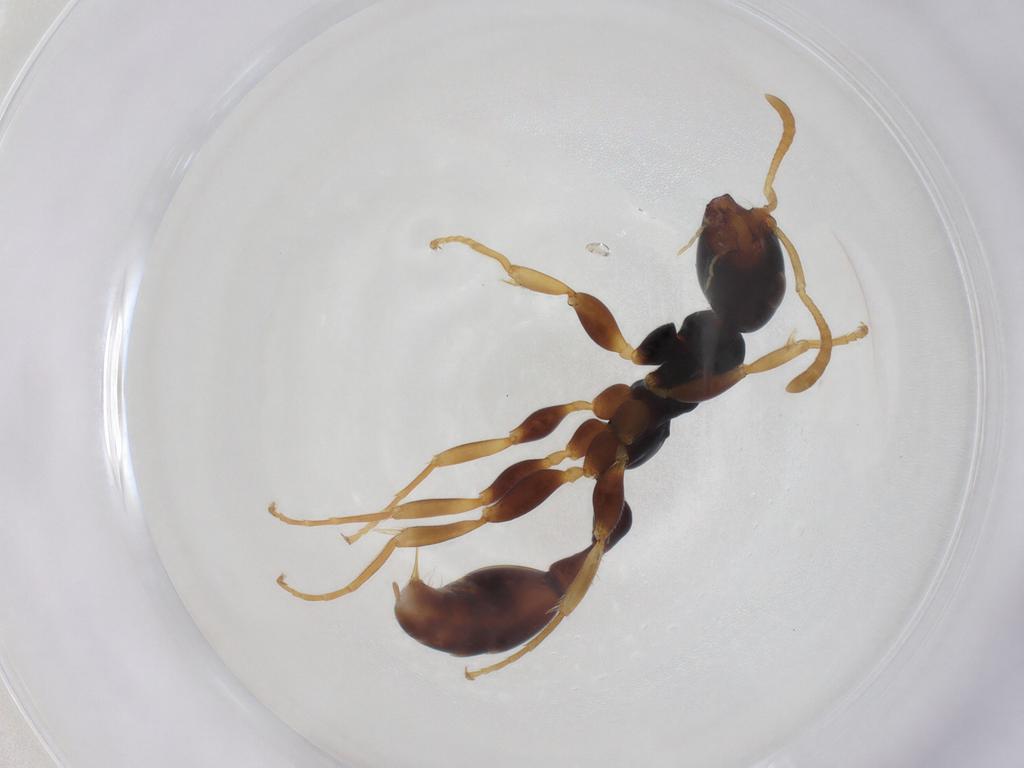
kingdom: Animalia
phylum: Arthropoda
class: Insecta
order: Hymenoptera
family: Formicidae
